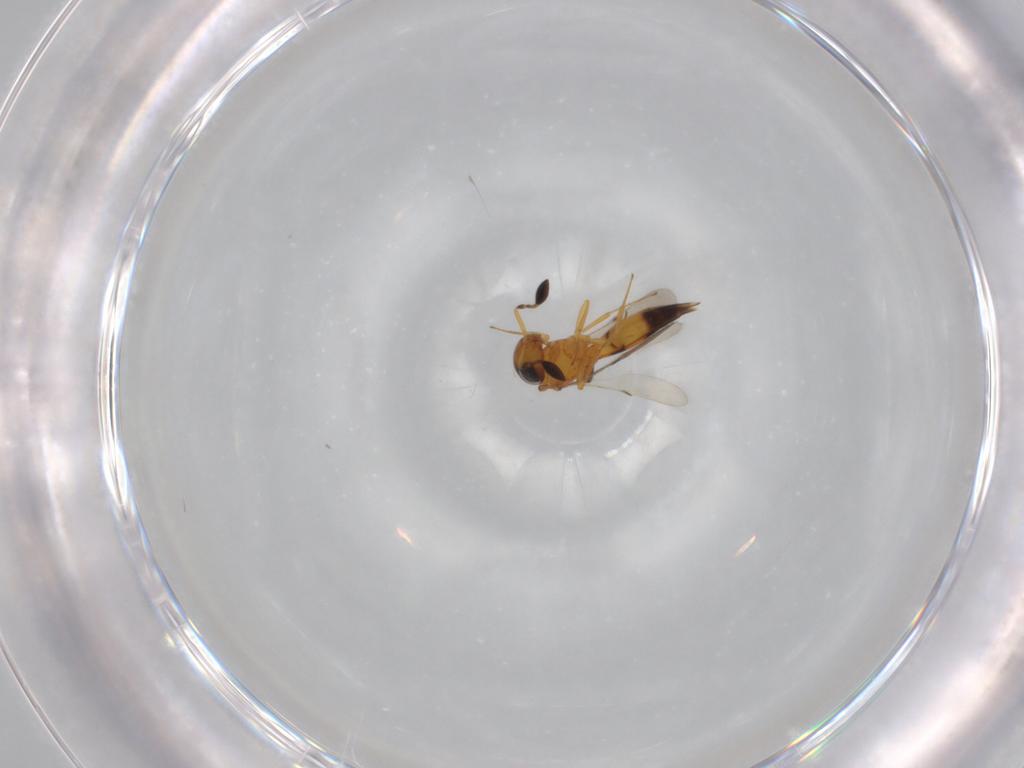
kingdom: Animalia
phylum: Arthropoda
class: Insecta
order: Hymenoptera
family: Scelionidae
